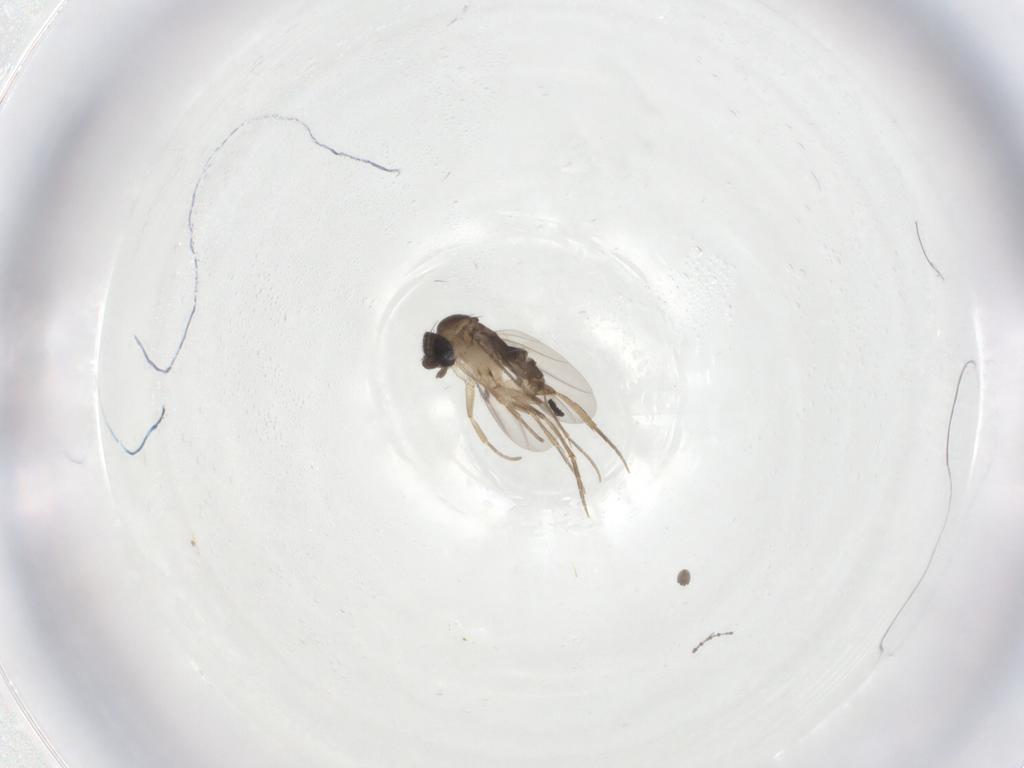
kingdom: Animalia
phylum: Arthropoda
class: Insecta
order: Diptera
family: Phoridae
